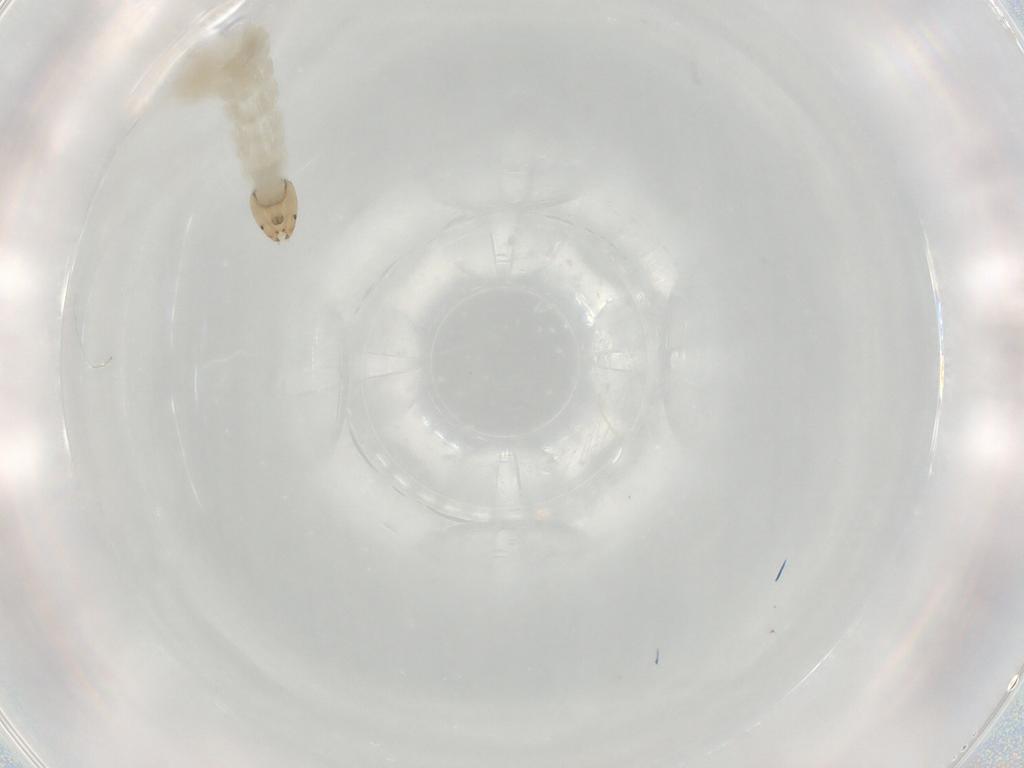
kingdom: Animalia
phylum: Arthropoda
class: Insecta
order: Diptera
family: Chironomidae
